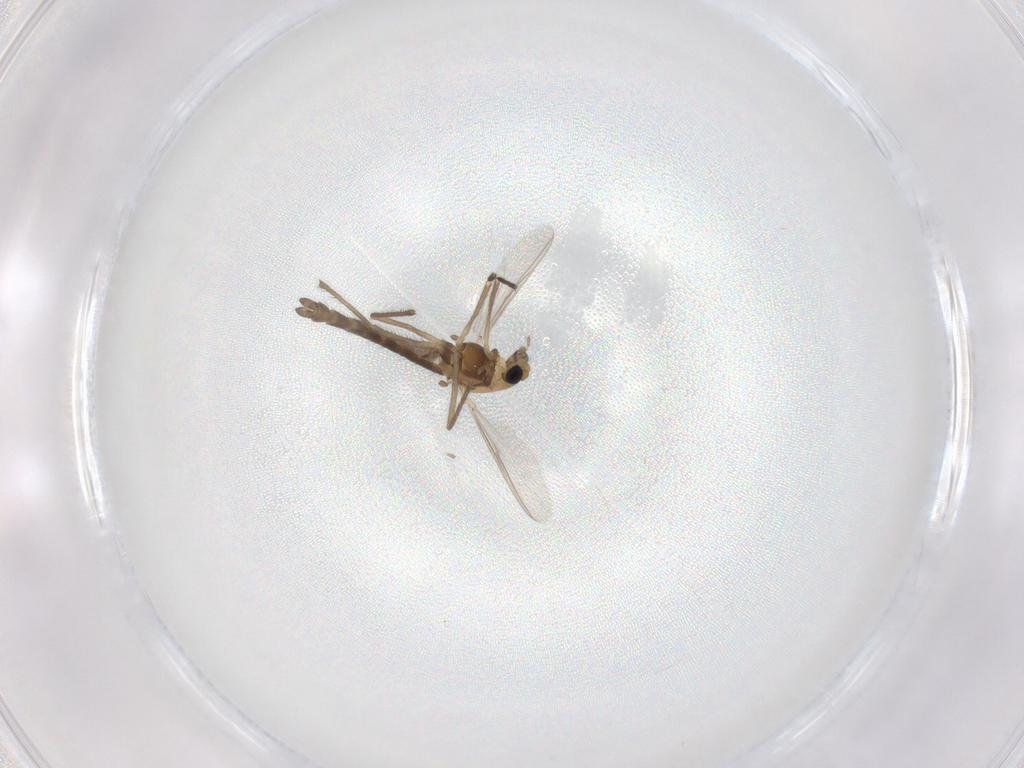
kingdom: Animalia
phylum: Arthropoda
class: Insecta
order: Diptera
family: Chironomidae
